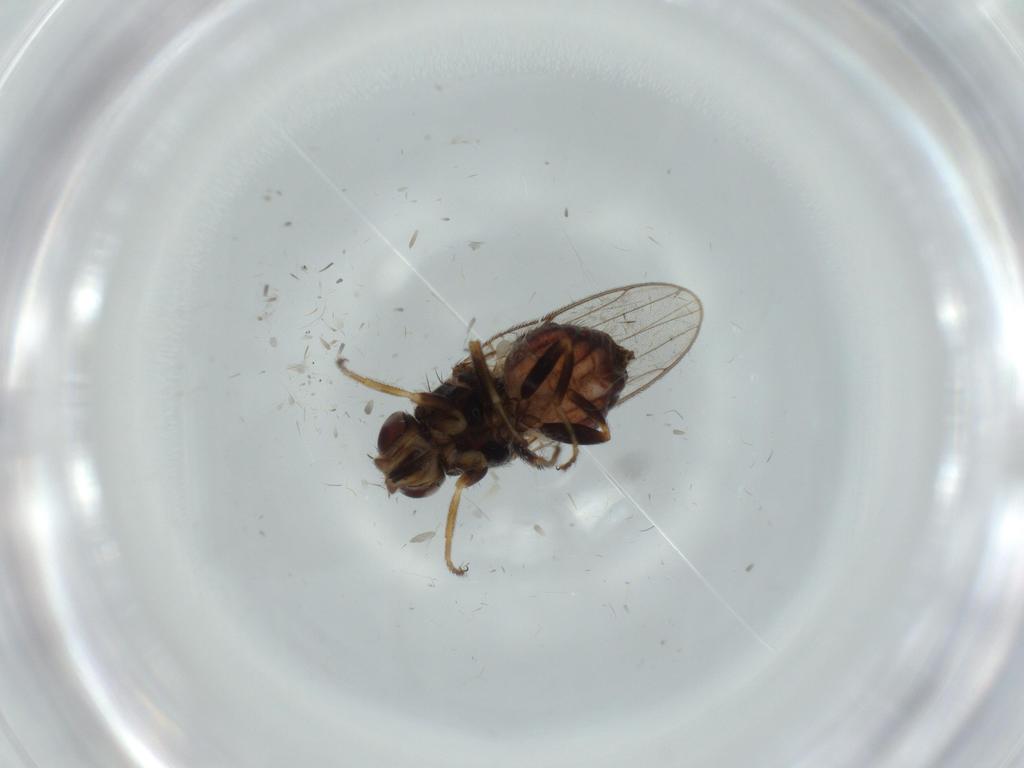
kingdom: Animalia
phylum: Arthropoda
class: Insecta
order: Diptera
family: Chloropidae
